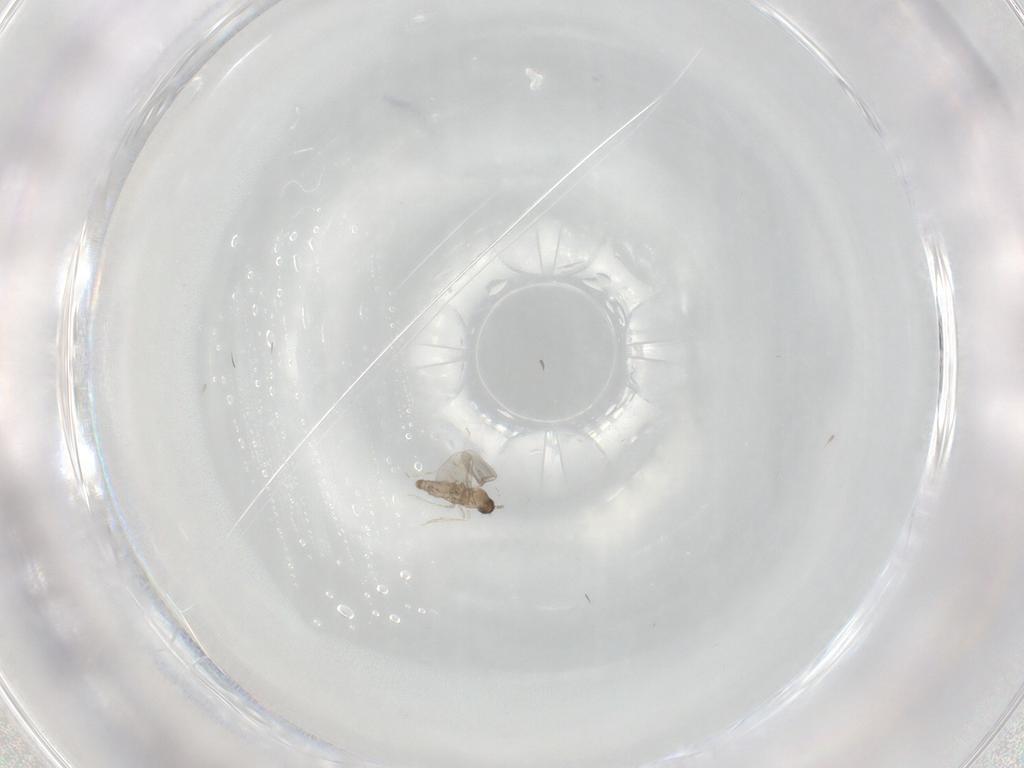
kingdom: Animalia
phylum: Arthropoda
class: Insecta
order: Diptera
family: Cecidomyiidae
